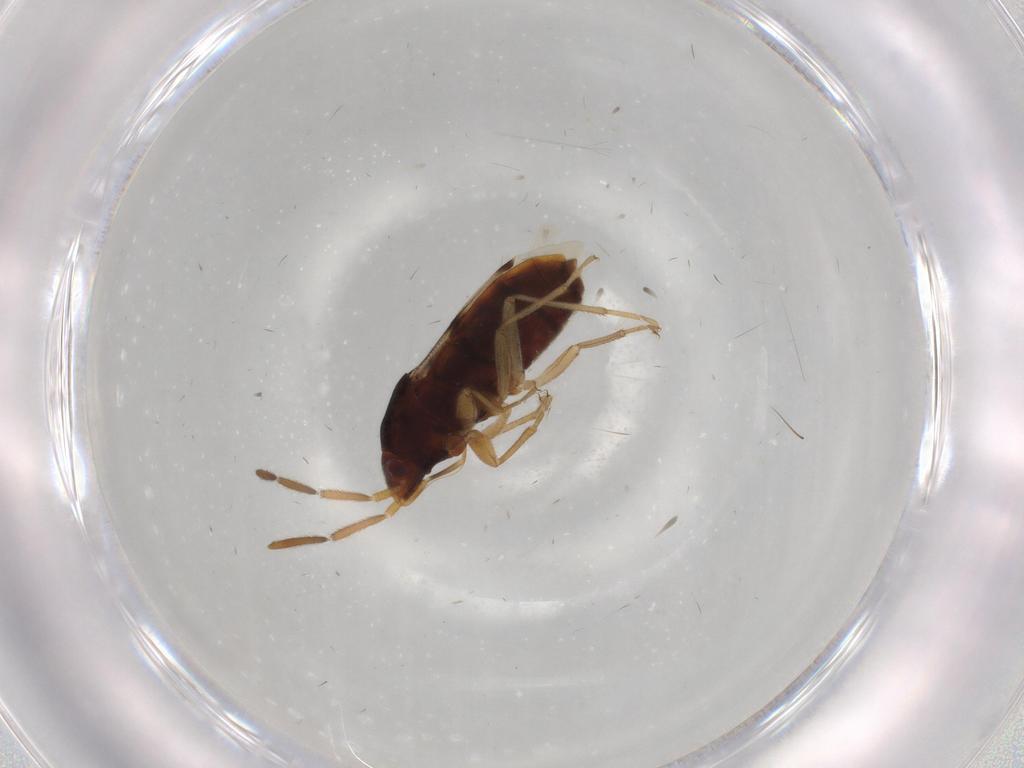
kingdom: Animalia
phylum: Arthropoda
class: Insecta
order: Hemiptera
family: Rhyparochromidae
